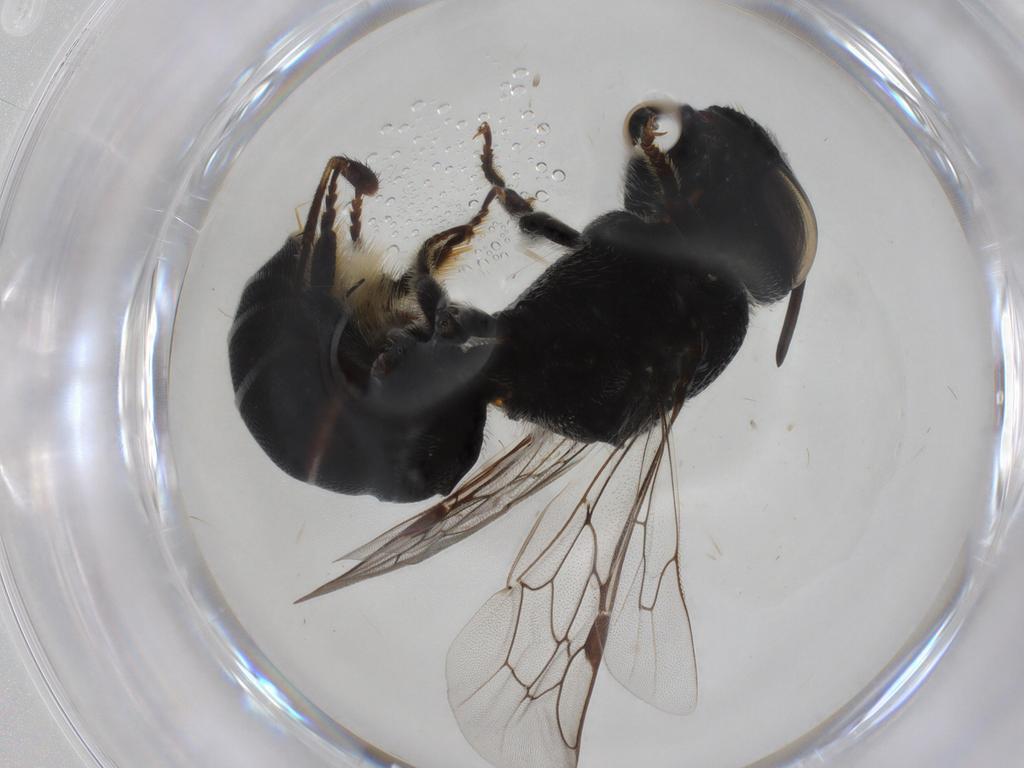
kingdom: Animalia
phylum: Arthropoda
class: Insecta
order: Hymenoptera
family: Megachilidae
